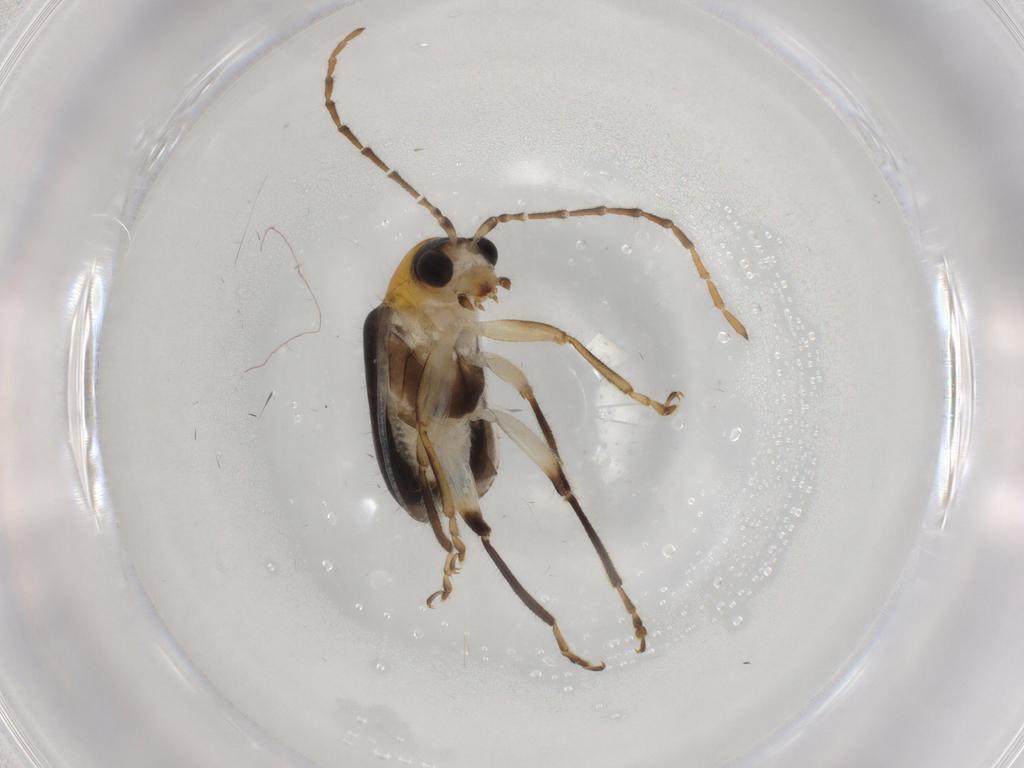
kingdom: Animalia
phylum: Arthropoda
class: Insecta
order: Coleoptera
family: Chrysomelidae
